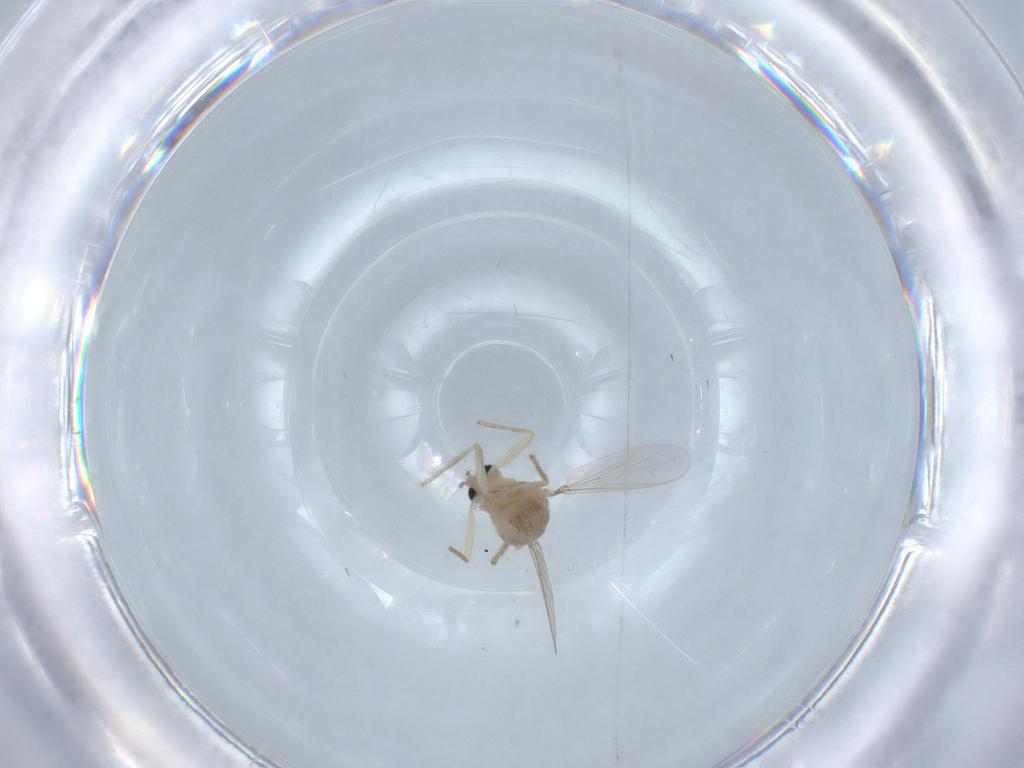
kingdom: Animalia
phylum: Arthropoda
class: Insecta
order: Diptera
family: Chironomidae
